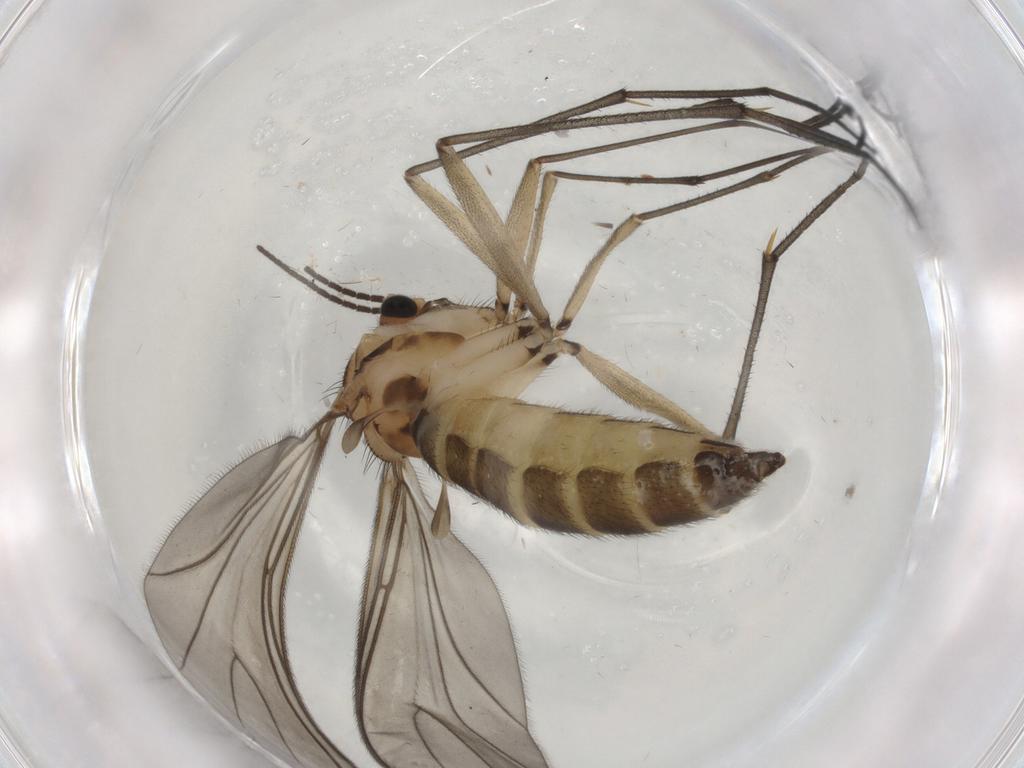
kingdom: Animalia
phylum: Arthropoda
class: Insecta
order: Diptera
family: Sciaridae
